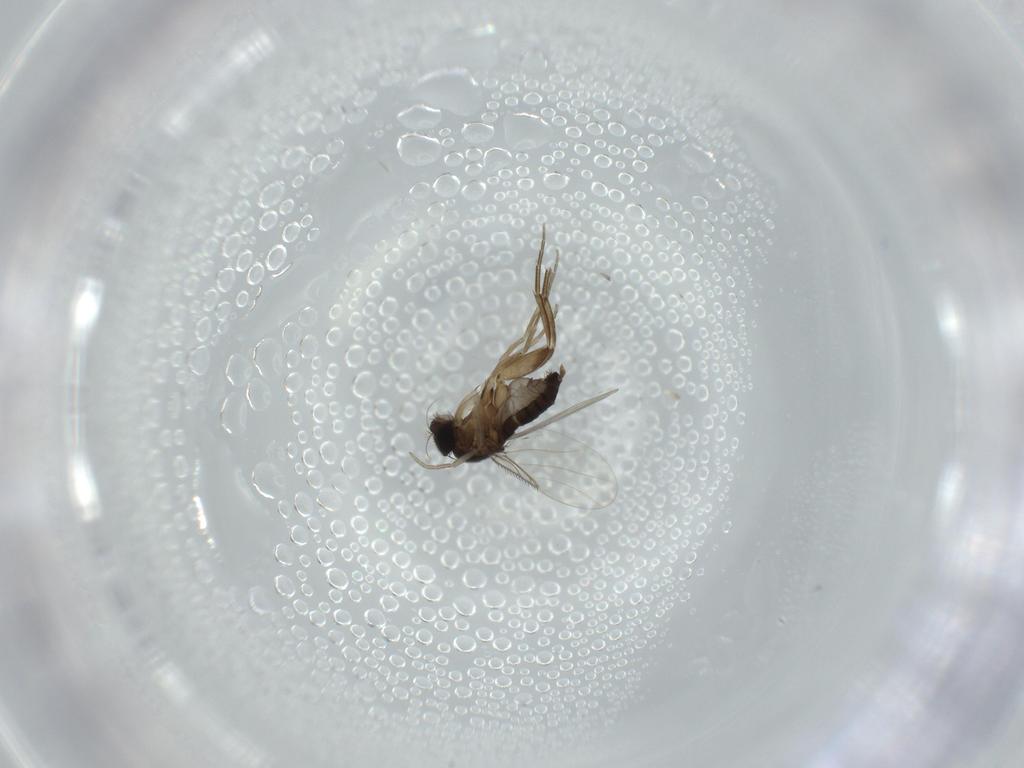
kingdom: Animalia
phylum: Arthropoda
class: Insecta
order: Diptera
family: Phoridae
